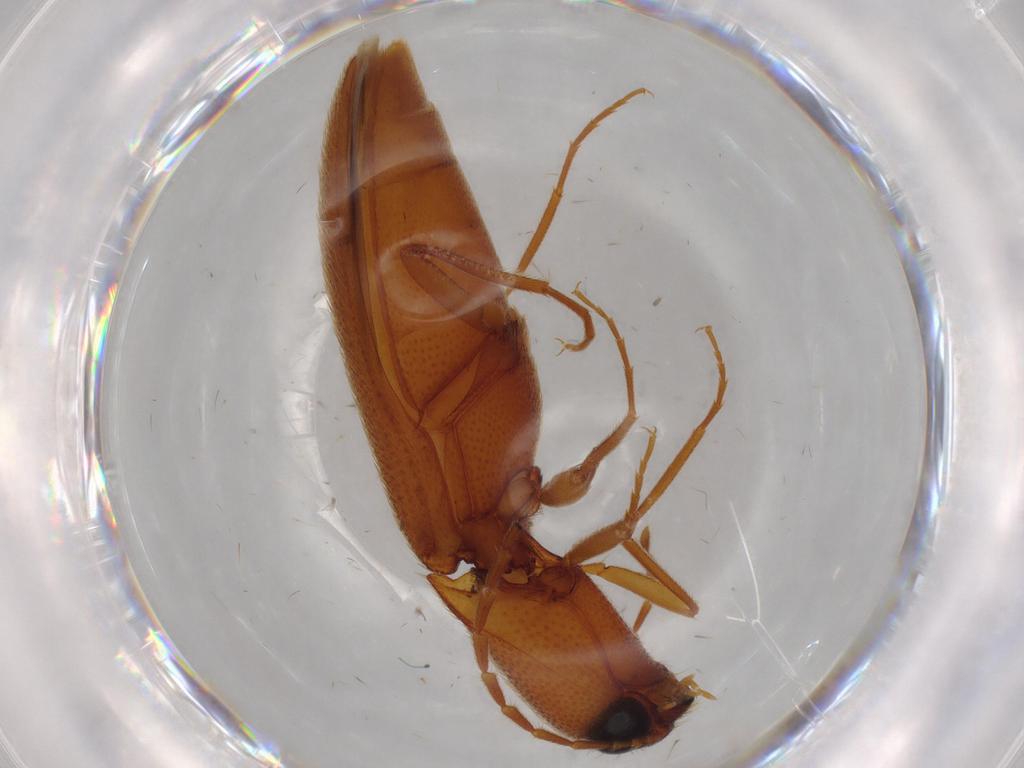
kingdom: Animalia
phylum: Arthropoda
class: Insecta
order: Coleoptera
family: Elateridae
